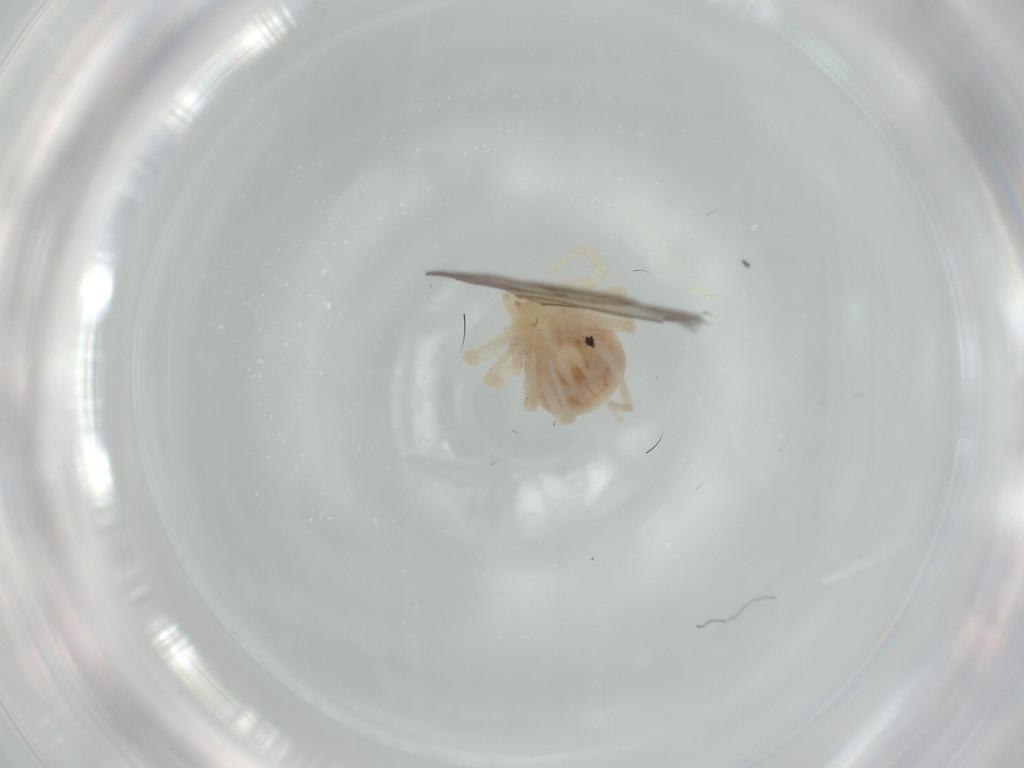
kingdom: Animalia
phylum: Arthropoda
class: Arachnida
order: Trombidiformes
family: Anystidae
